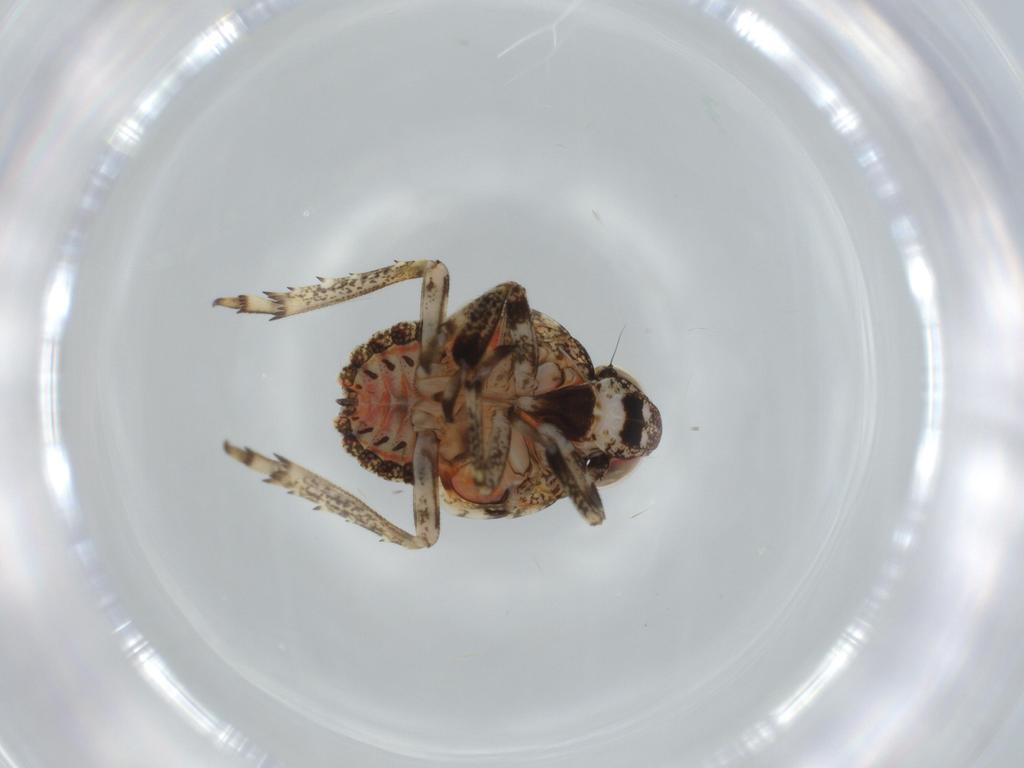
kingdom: Animalia
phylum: Arthropoda
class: Insecta
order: Hemiptera
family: Issidae
